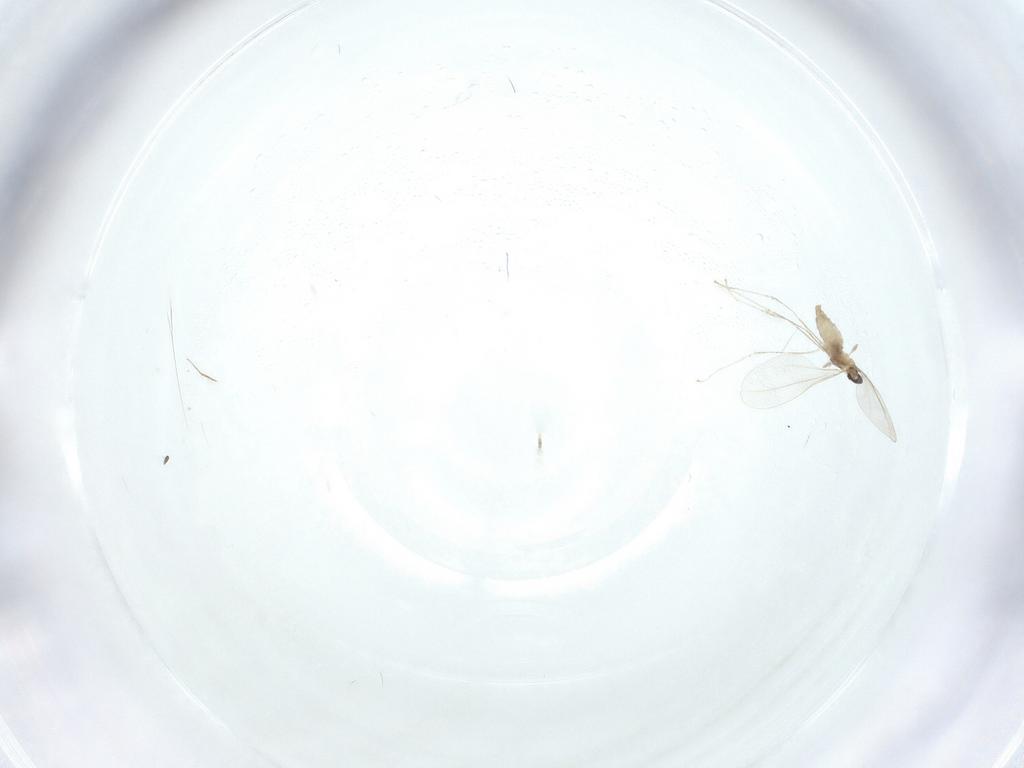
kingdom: Animalia
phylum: Arthropoda
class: Insecta
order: Diptera
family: Chironomidae
